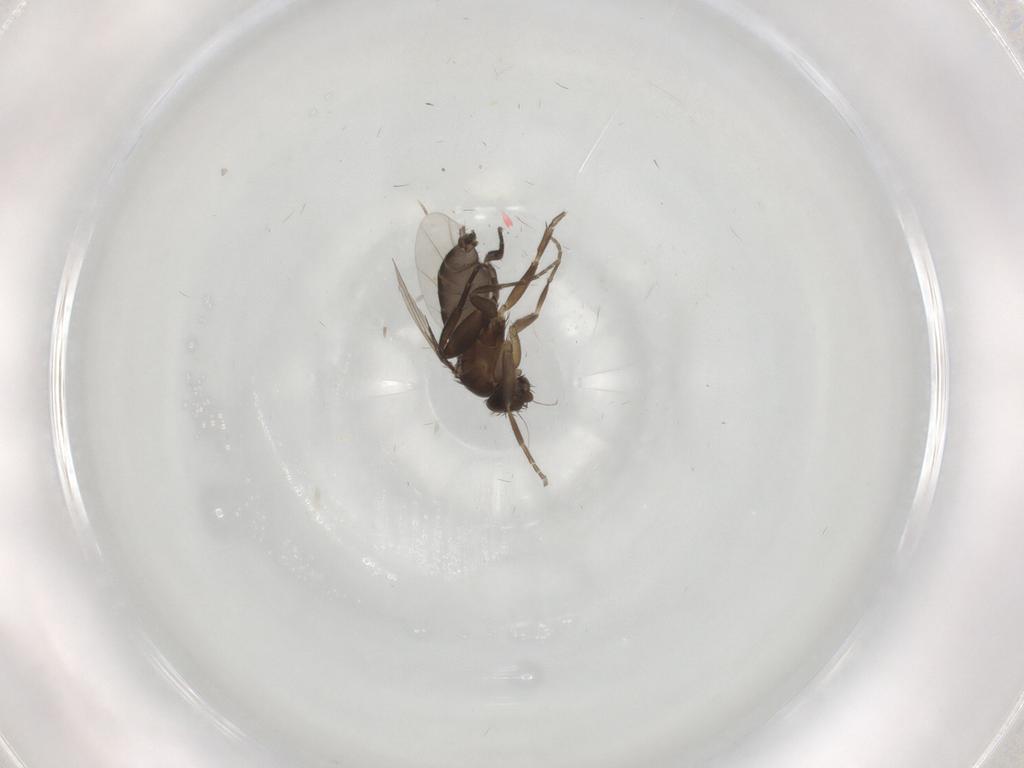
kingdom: Animalia
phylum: Arthropoda
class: Insecta
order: Diptera
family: Phoridae
